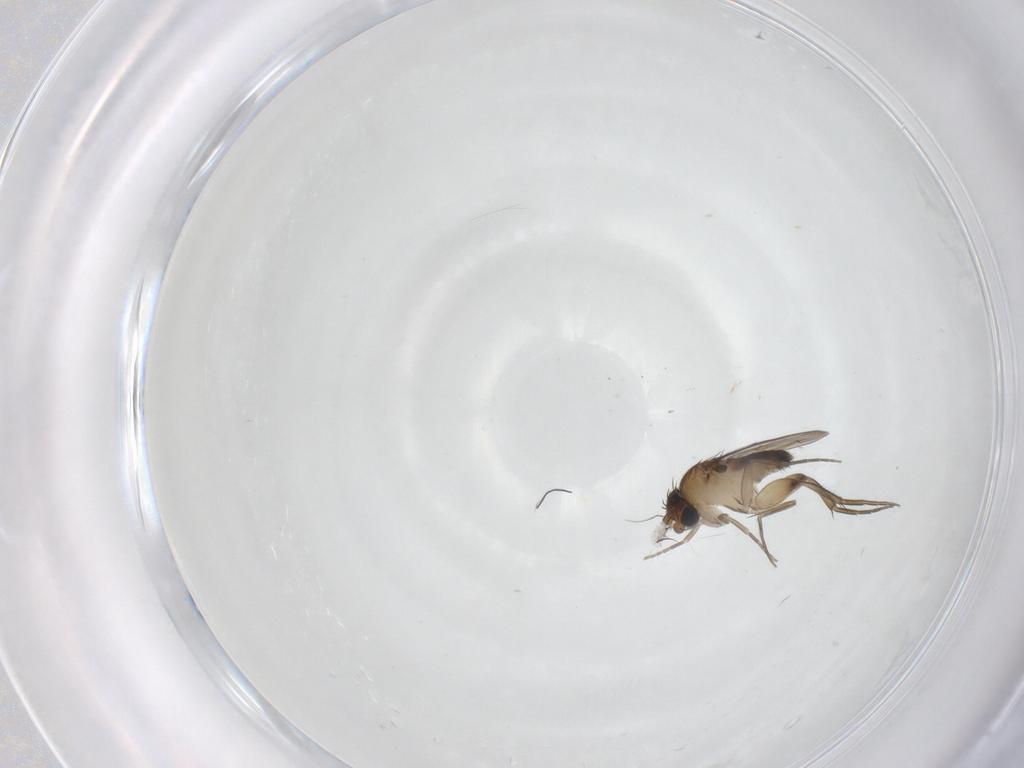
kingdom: Animalia
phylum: Arthropoda
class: Insecta
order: Diptera
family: Phoridae
